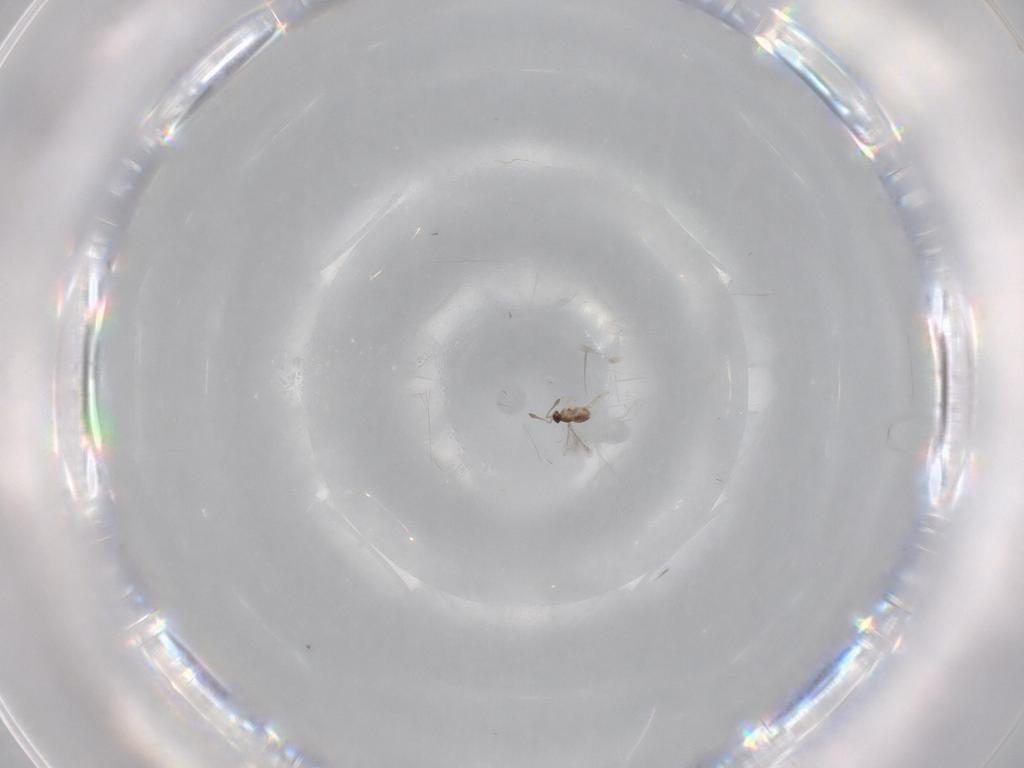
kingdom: Animalia
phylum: Arthropoda
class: Insecta
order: Hymenoptera
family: Mymaridae
